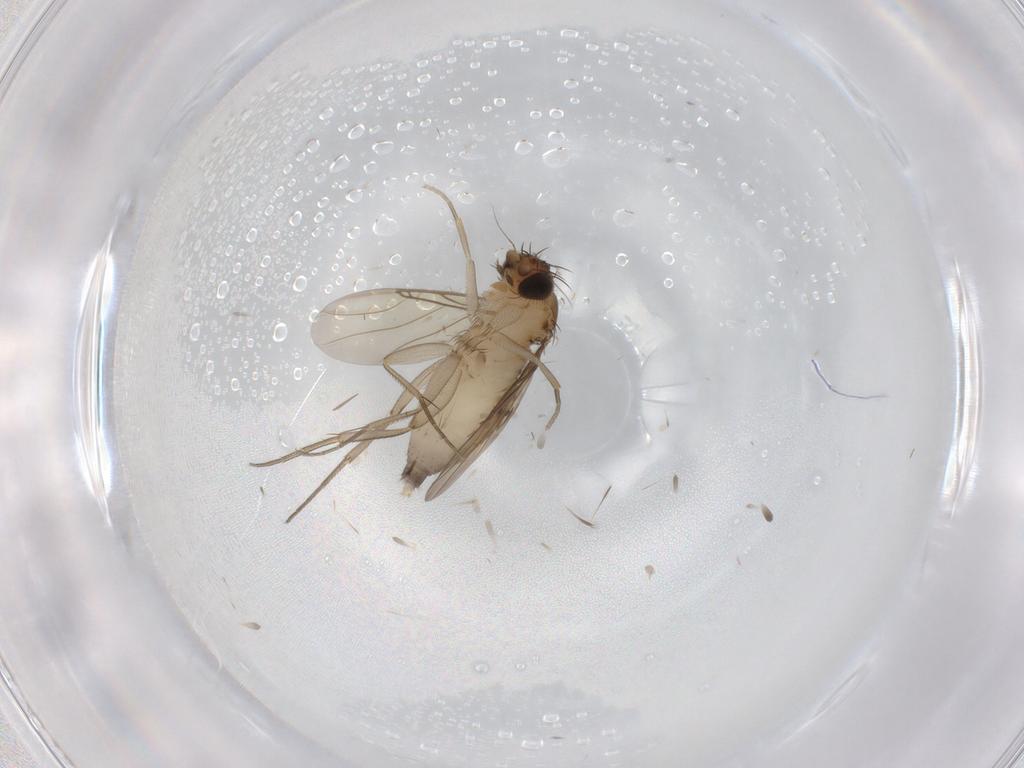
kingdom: Animalia
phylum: Arthropoda
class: Insecta
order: Diptera
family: Phoridae
